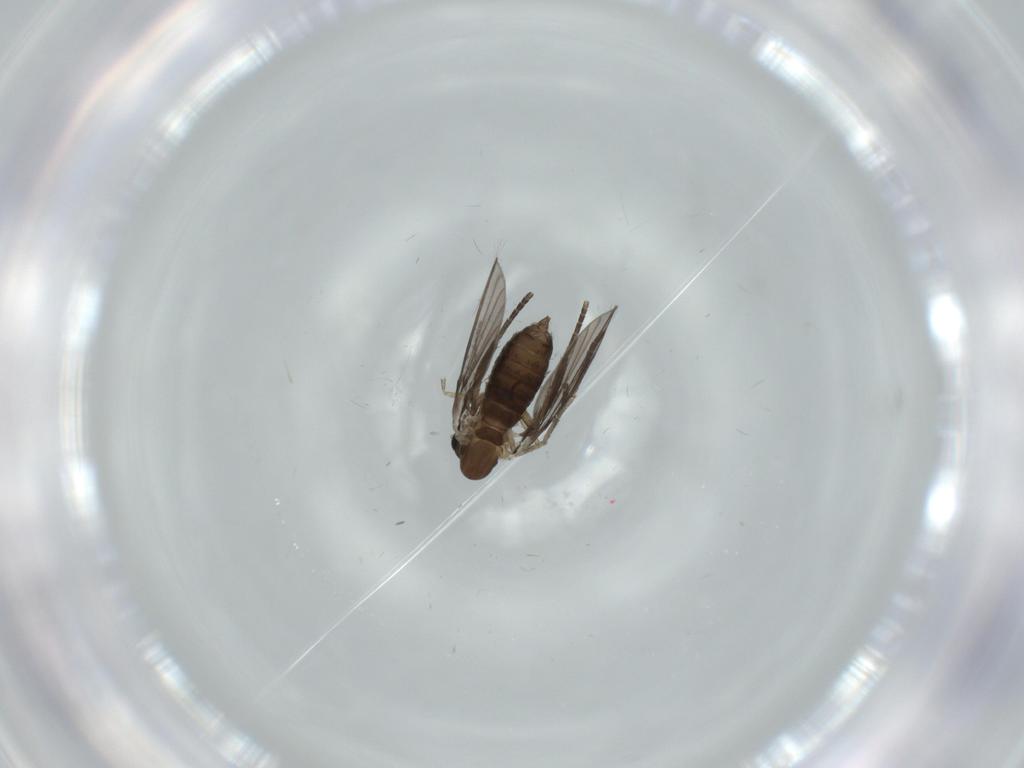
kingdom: Animalia
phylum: Arthropoda
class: Insecta
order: Diptera
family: Psychodidae
